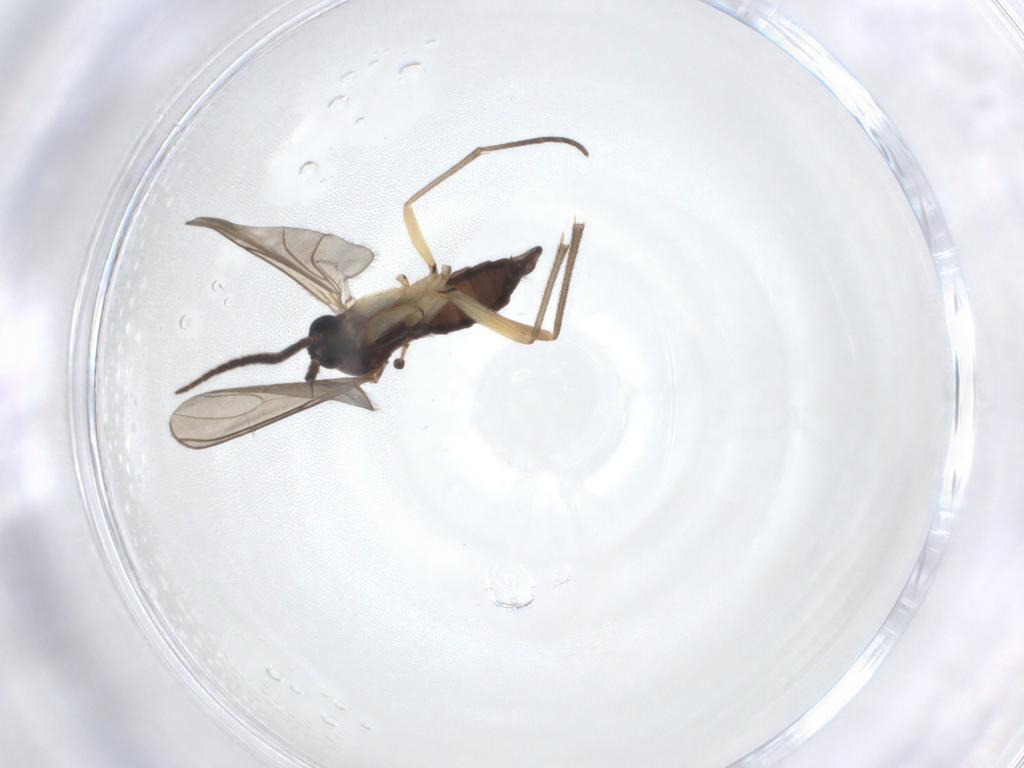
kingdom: Animalia
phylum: Arthropoda
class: Insecta
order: Diptera
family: Sciaridae
